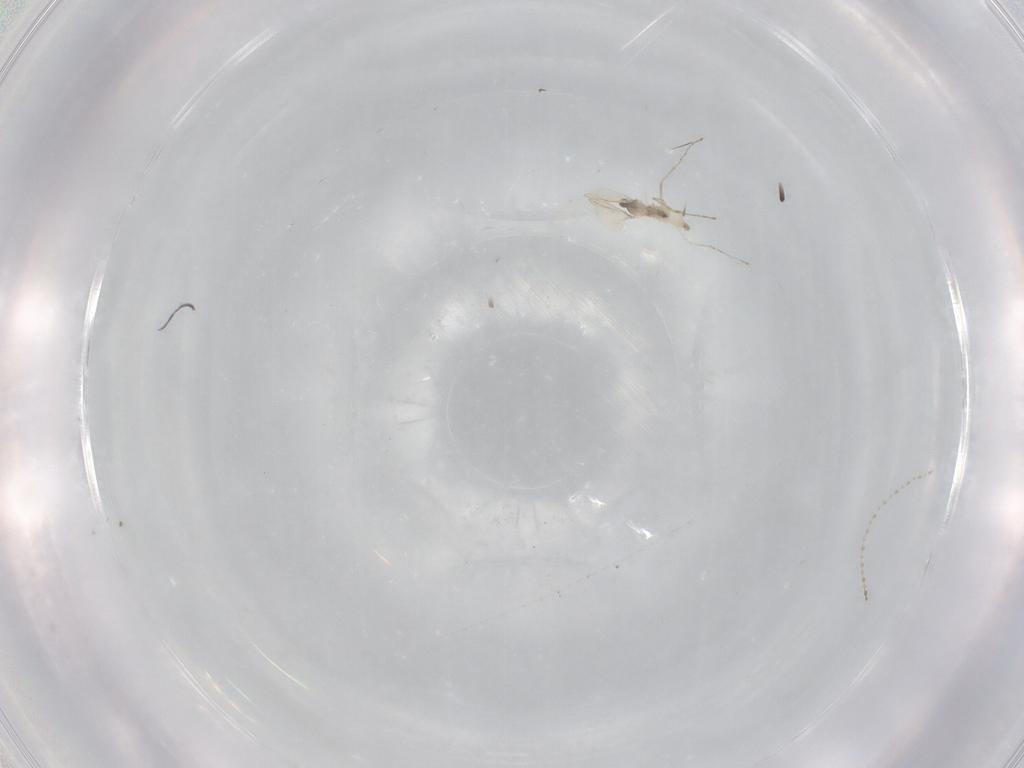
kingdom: Animalia
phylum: Arthropoda
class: Insecta
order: Diptera
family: Cecidomyiidae
